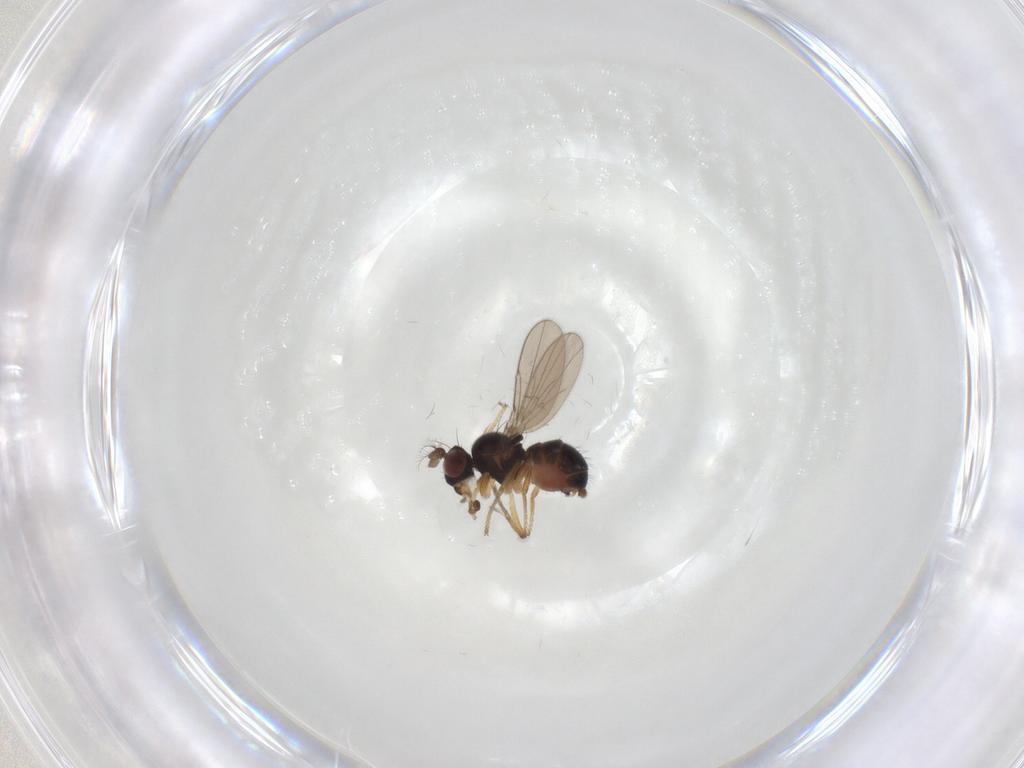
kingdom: Animalia
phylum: Arthropoda
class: Insecta
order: Diptera
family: Ephydridae
